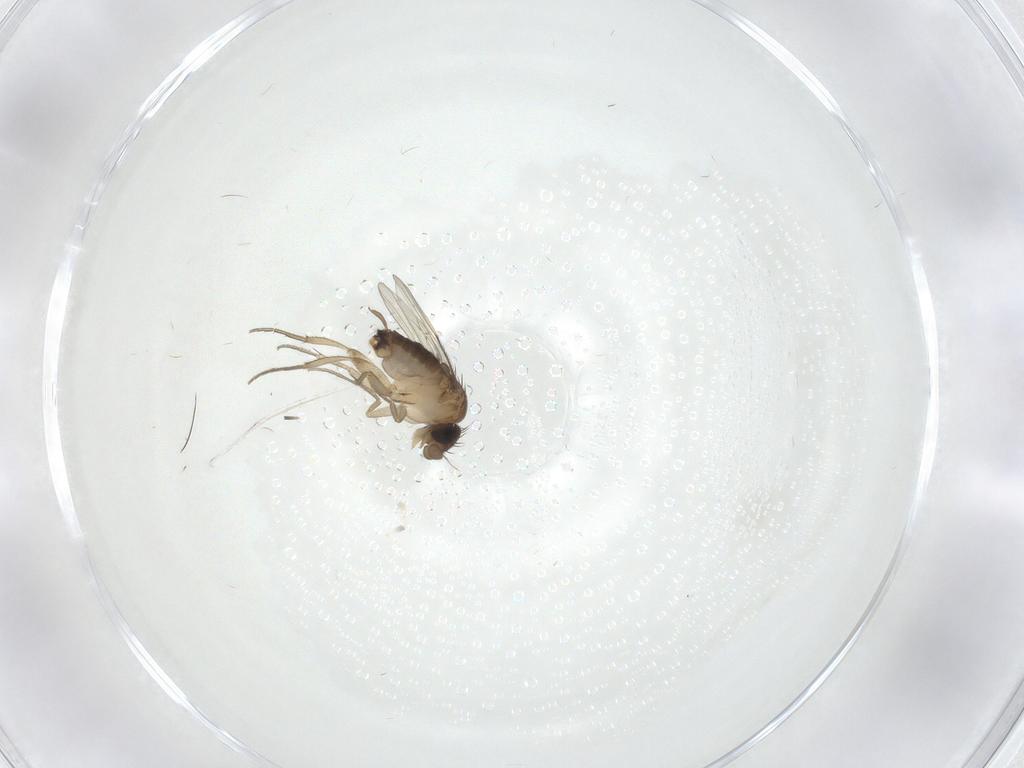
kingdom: Animalia
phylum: Arthropoda
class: Insecta
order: Diptera
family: Phoridae
